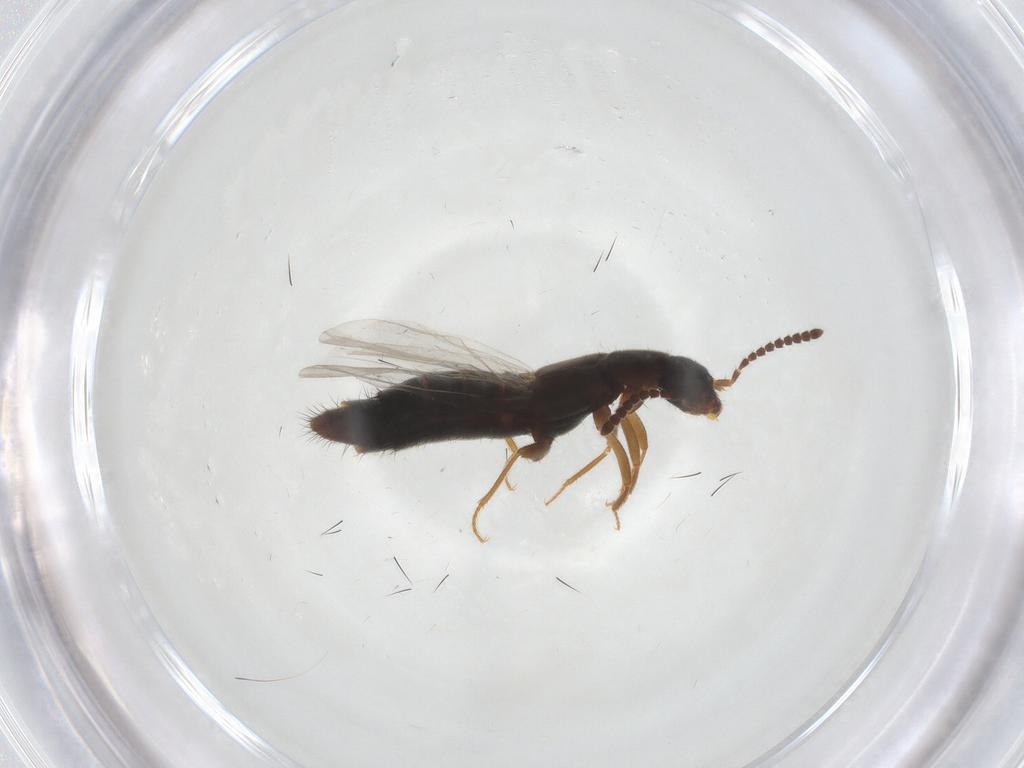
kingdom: Animalia
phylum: Arthropoda
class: Insecta
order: Coleoptera
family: Staphylinidae
